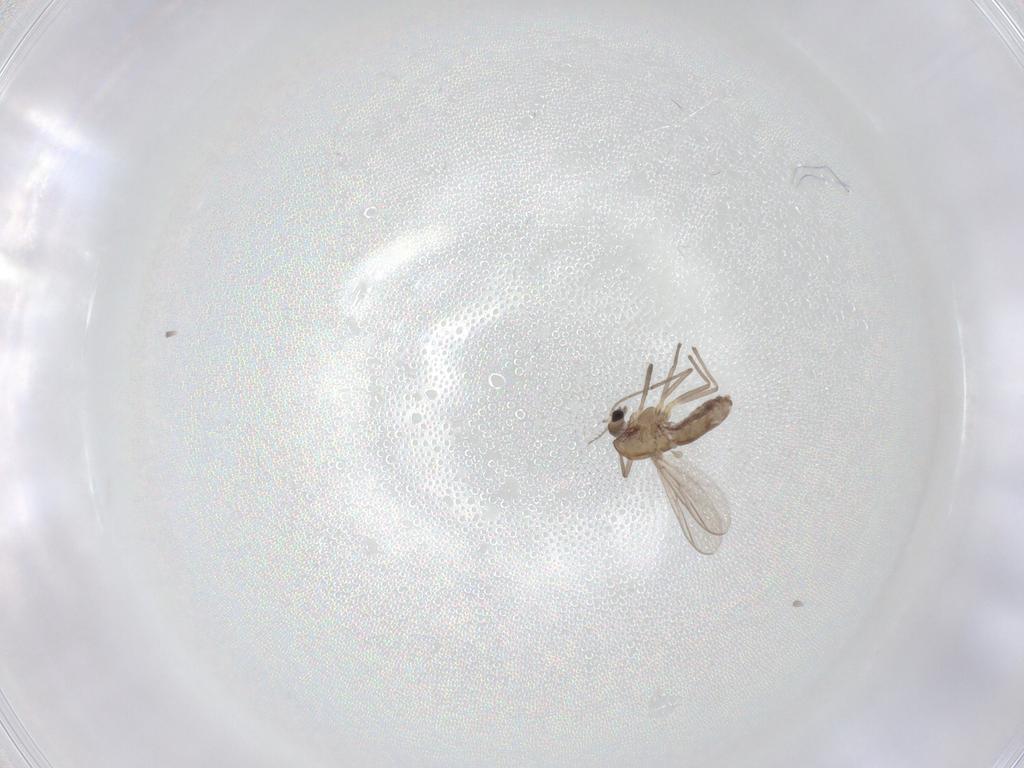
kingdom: Animalia
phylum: Arthropoda
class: Insecta
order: Diptera
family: Chironomidae
